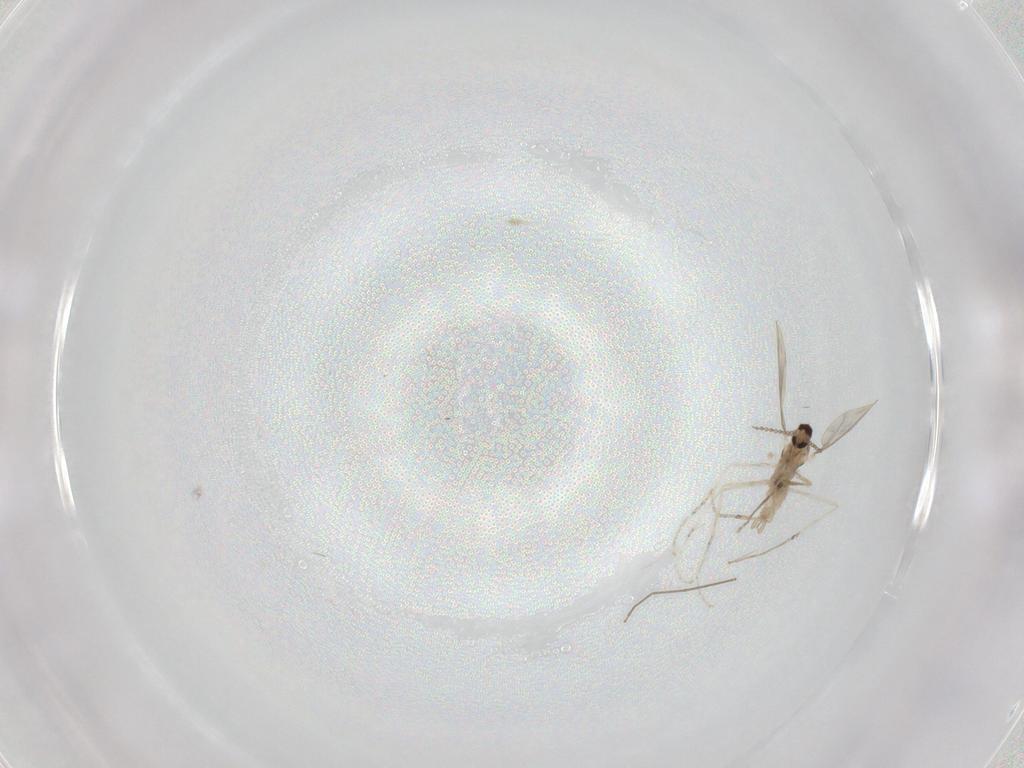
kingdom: Animalia
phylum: Arthropoda
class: Insecta
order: Diptera
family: Cecidomyiidae
